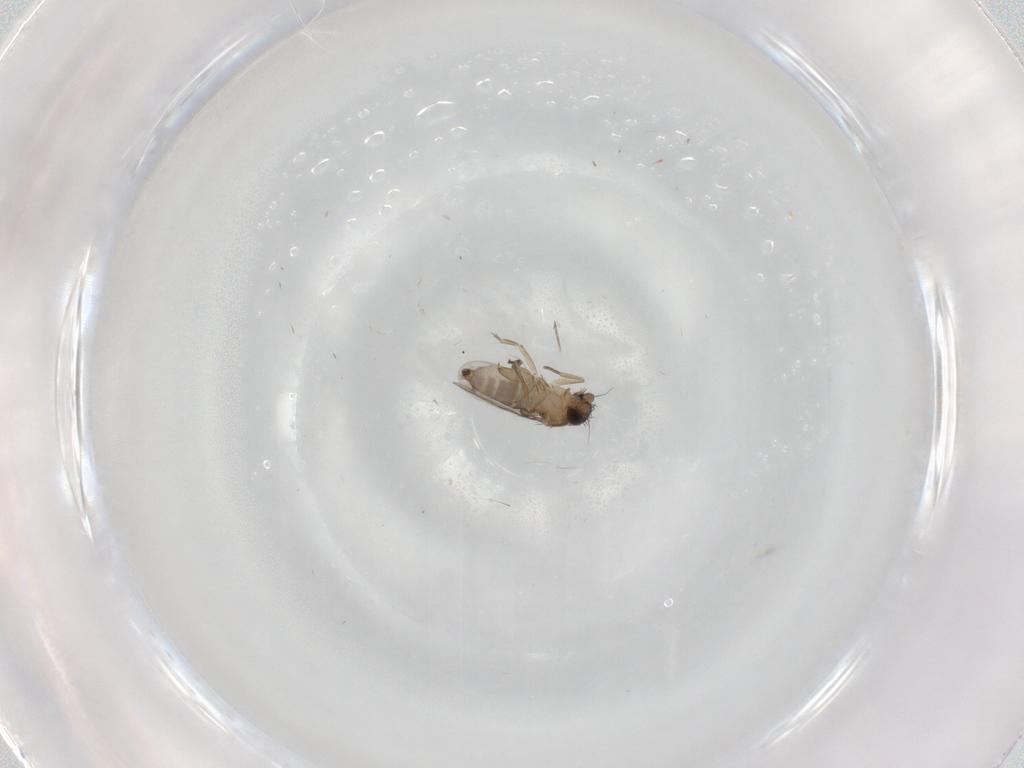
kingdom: Animalia
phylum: Arthropoda
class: Insecta
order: Diptera
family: Phoridae
